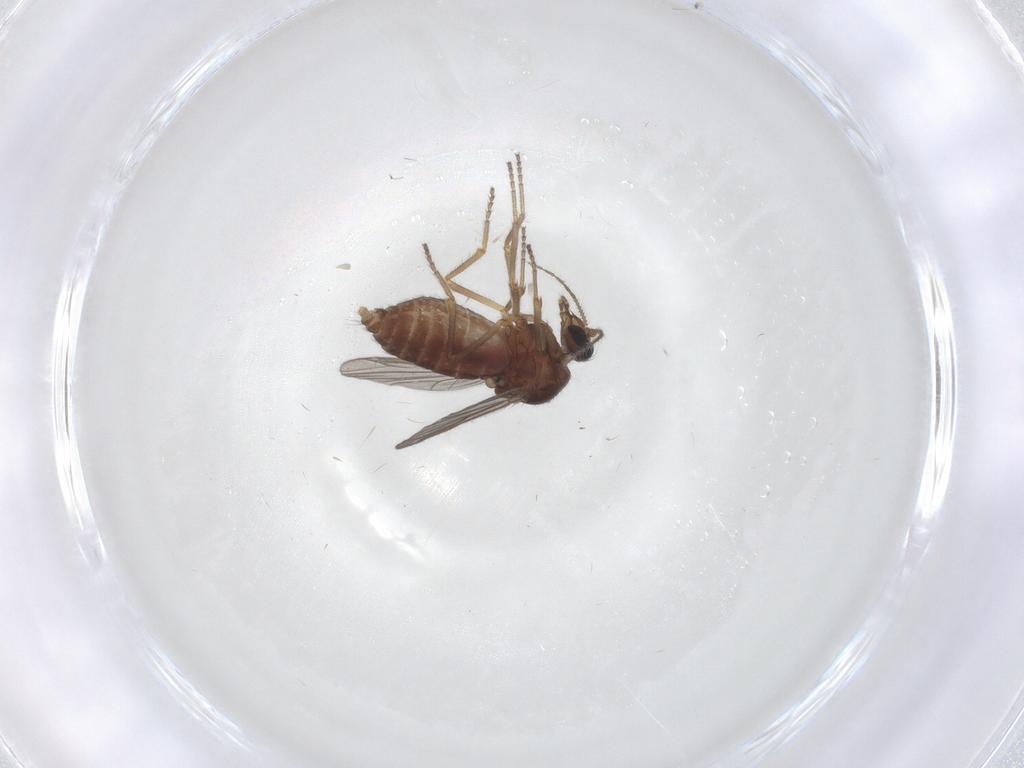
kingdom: Animalia
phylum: Arthropoda
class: Insecta
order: Diptera
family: Ceratopogonidae
